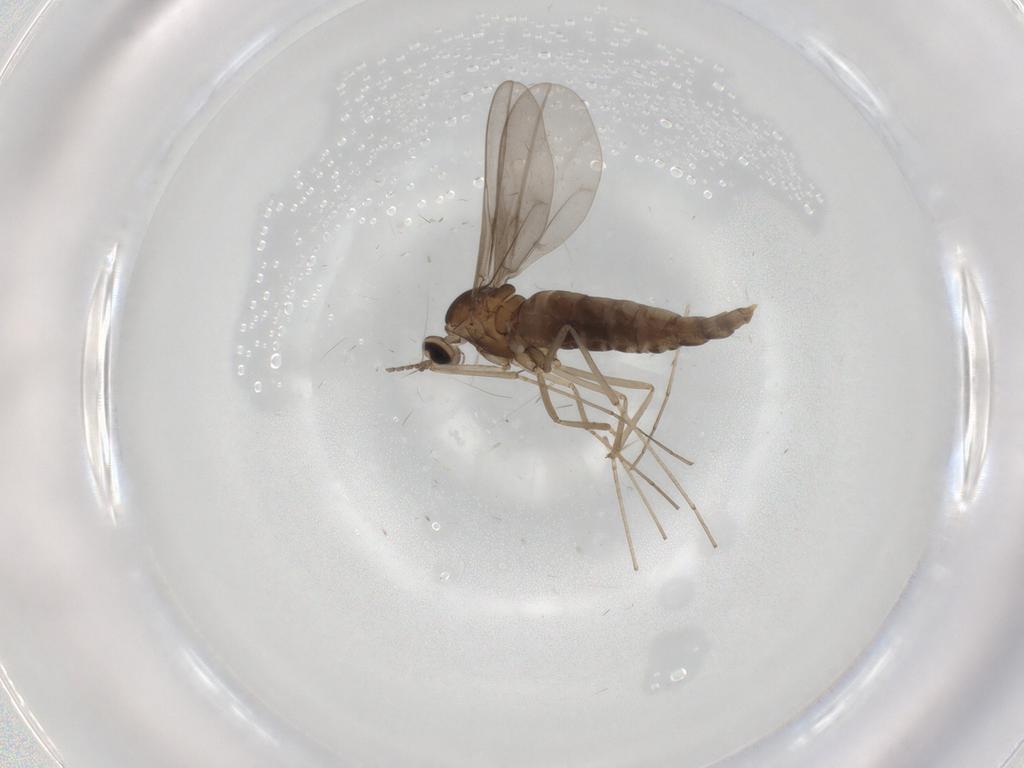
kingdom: Animalia
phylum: Arthropoda
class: Insecta
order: Diptera
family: Cecidomyiidae
